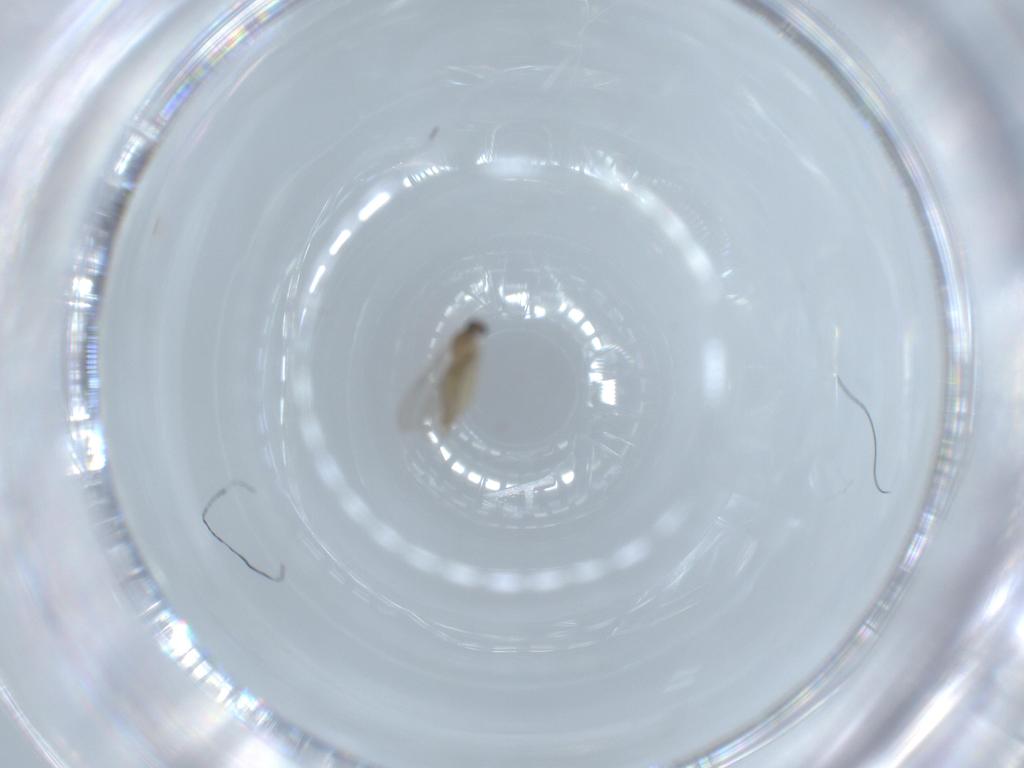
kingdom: Animalia
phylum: Arthropoda
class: Insecta
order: Diptera
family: Cecidomyiidae
